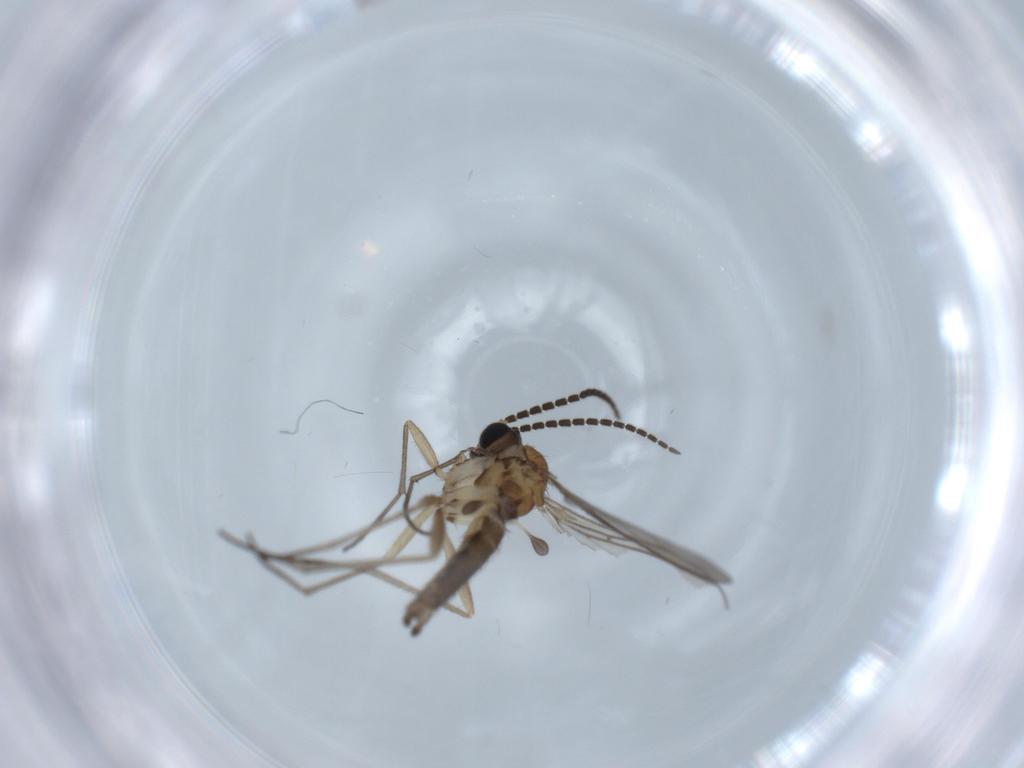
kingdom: Animalia
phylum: Arthropoda
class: Insecta
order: Diptera
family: Sciaridae
